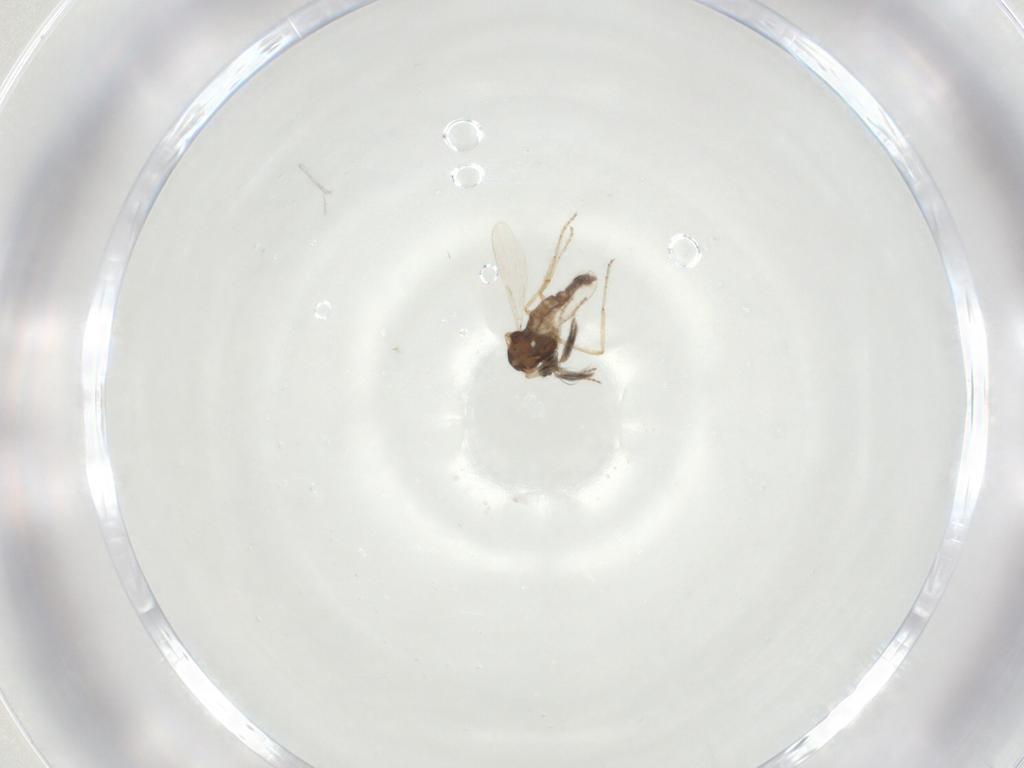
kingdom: Animalia
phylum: Arthropoda
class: Insecta
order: Diptera
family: Ceratopogonidae
